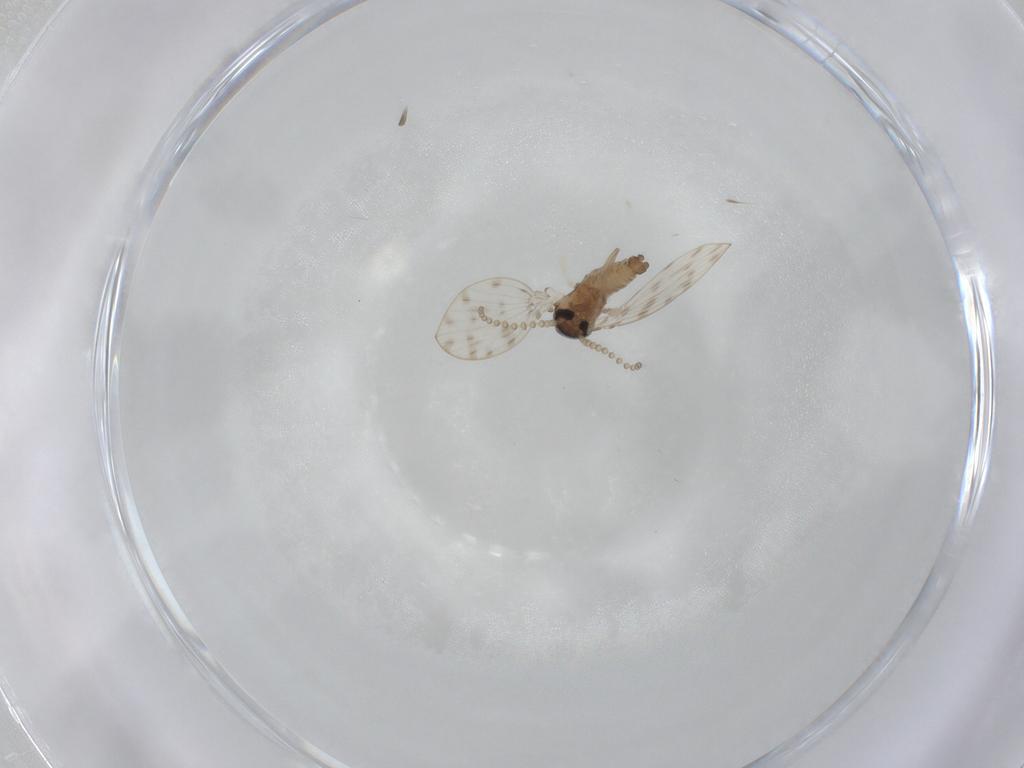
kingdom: Animalia
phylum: Arthropoda
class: Insecta
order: Diptera
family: Psychodidae
